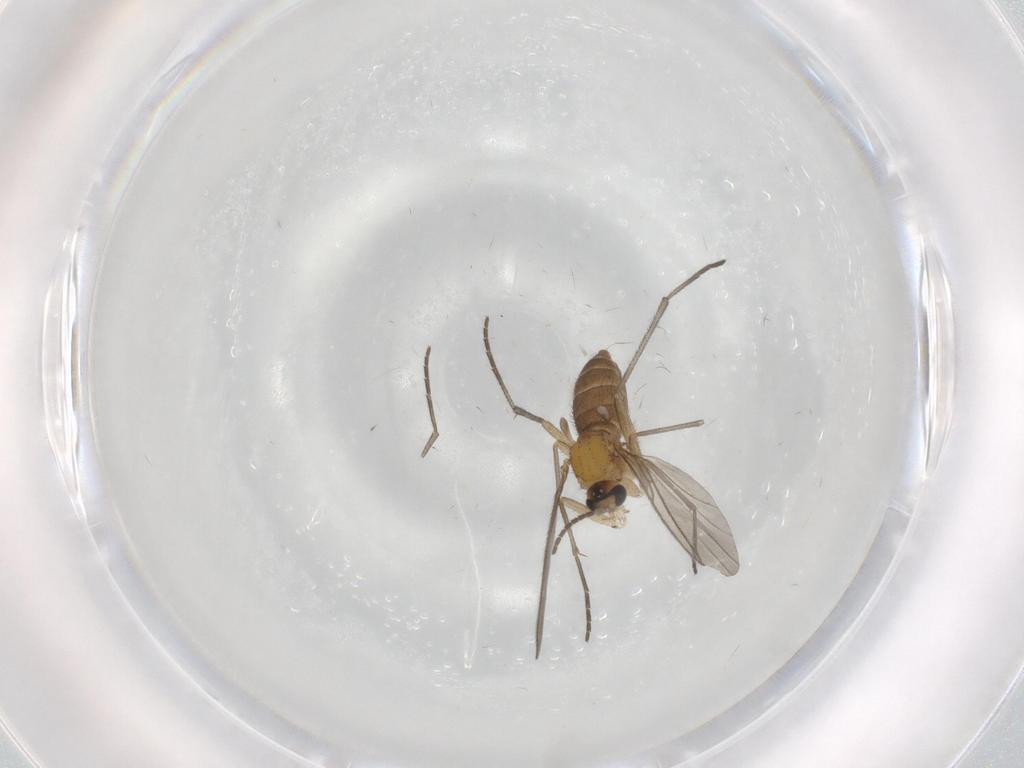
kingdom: Animalia
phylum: Arthropoda
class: Insecta
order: Diptera
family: Sciaridae
